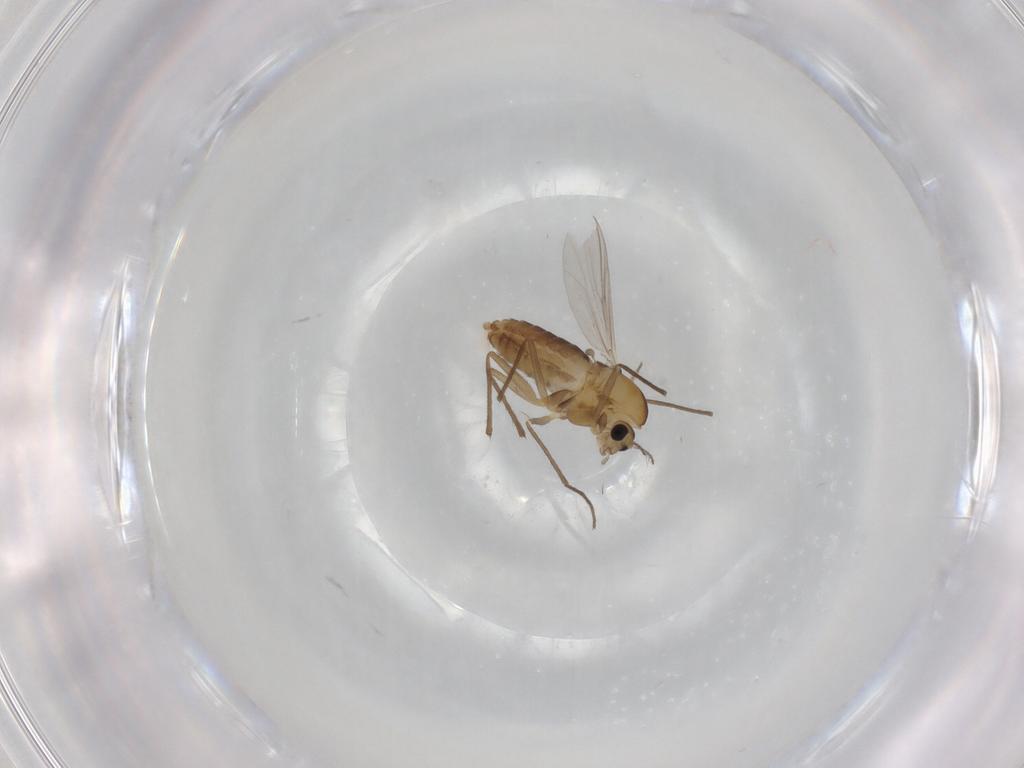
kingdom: Animalia
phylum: Arthropoda
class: Insecta
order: Diptera
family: Chironomidae
